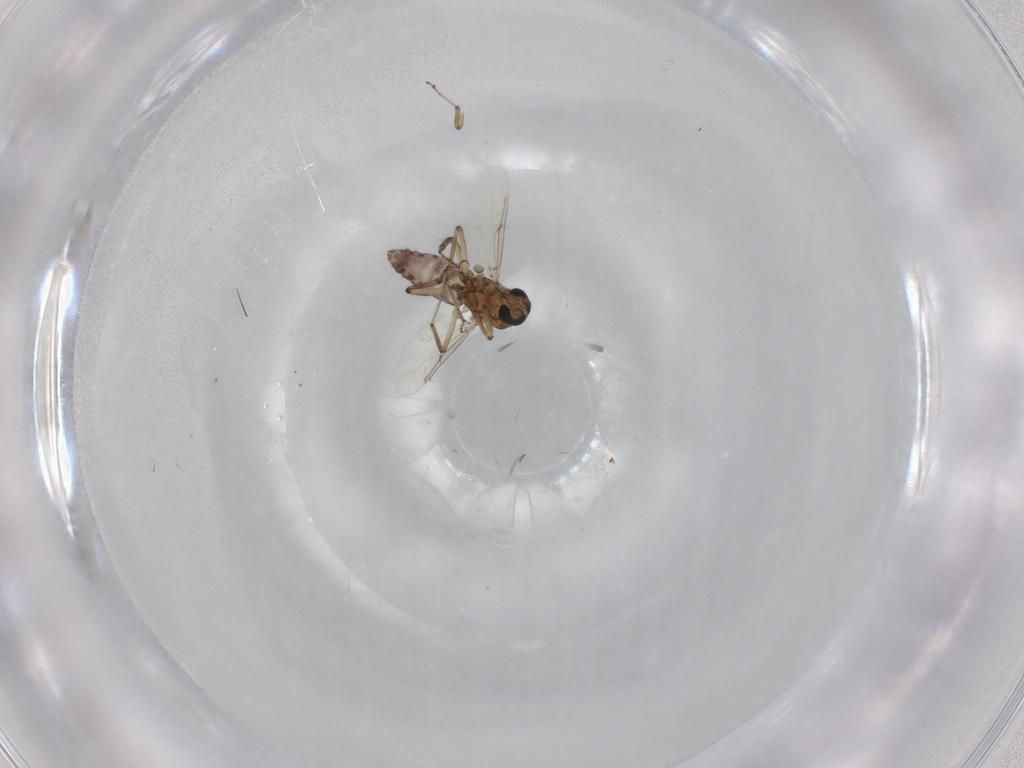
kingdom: Animalia
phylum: Arthropoda
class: Insecta
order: Diptera
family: Ceratopogonidae
